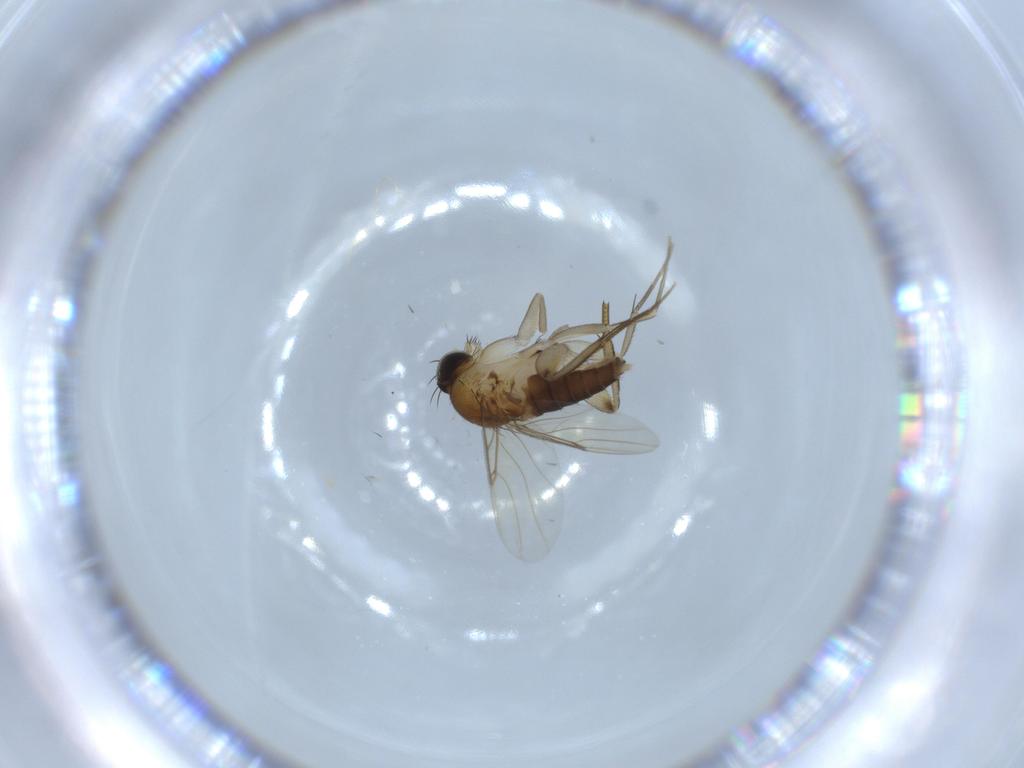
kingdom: Animalia
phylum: Arthropoda
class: Insecta
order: Diptera
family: Phoridae
